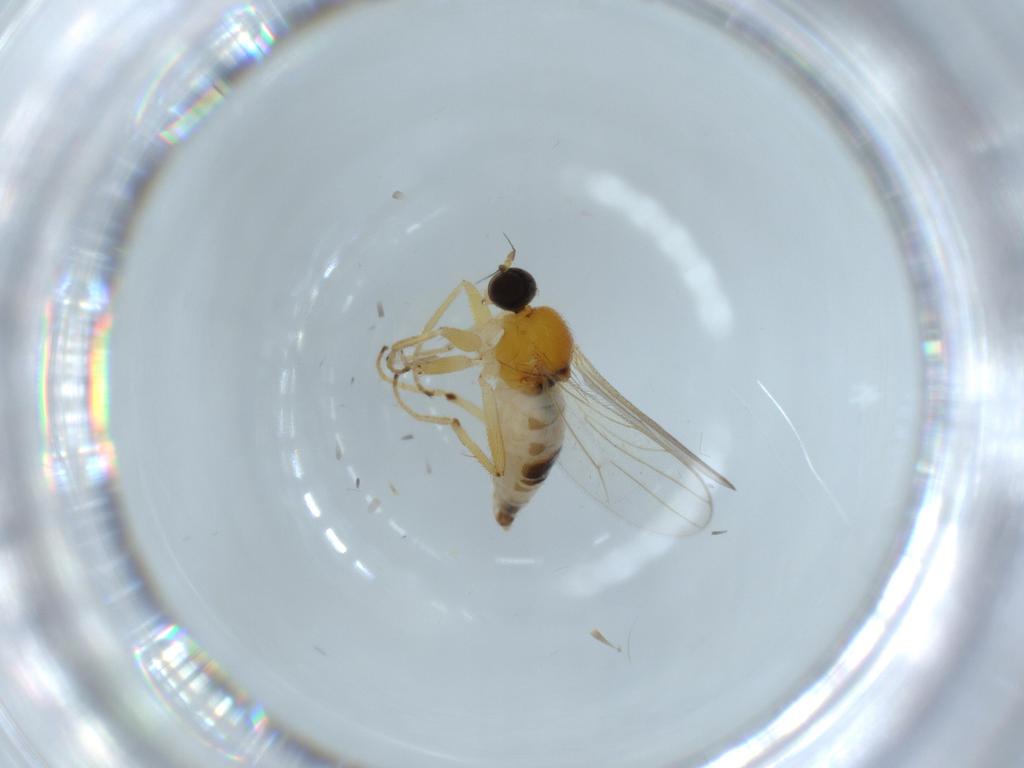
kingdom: Animalia
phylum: Arthropoda
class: Insecta
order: Diptera
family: Hybotidae
